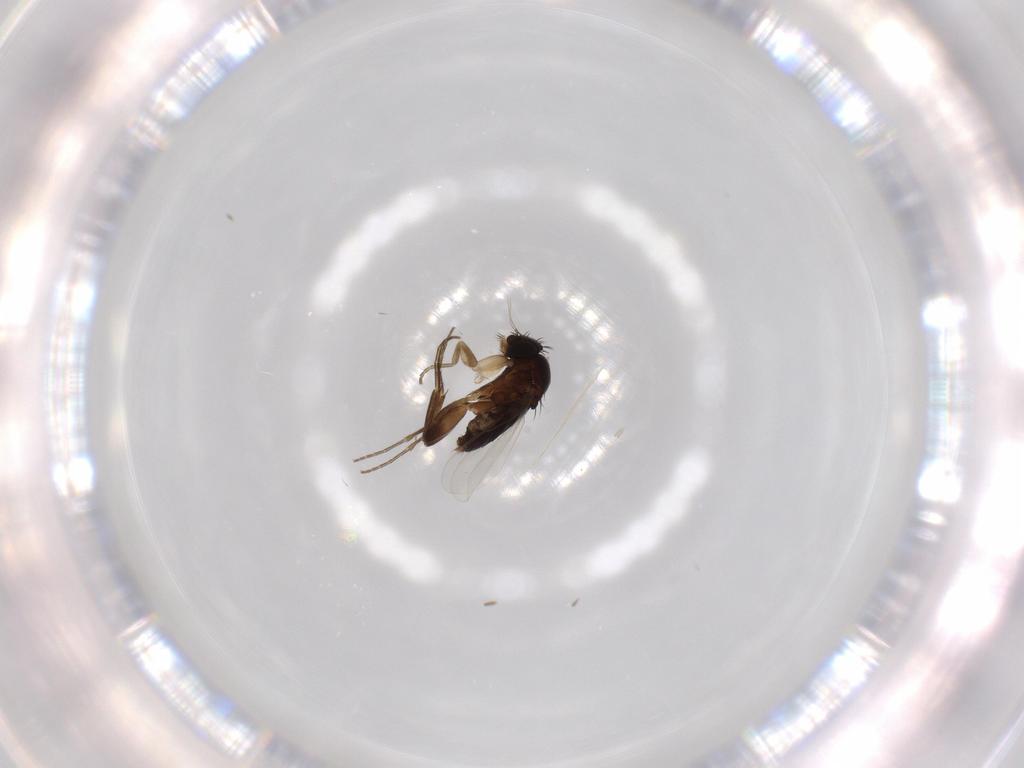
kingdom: Animalia
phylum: Arthropoda
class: Insecta
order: Diptera
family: Phoridae
